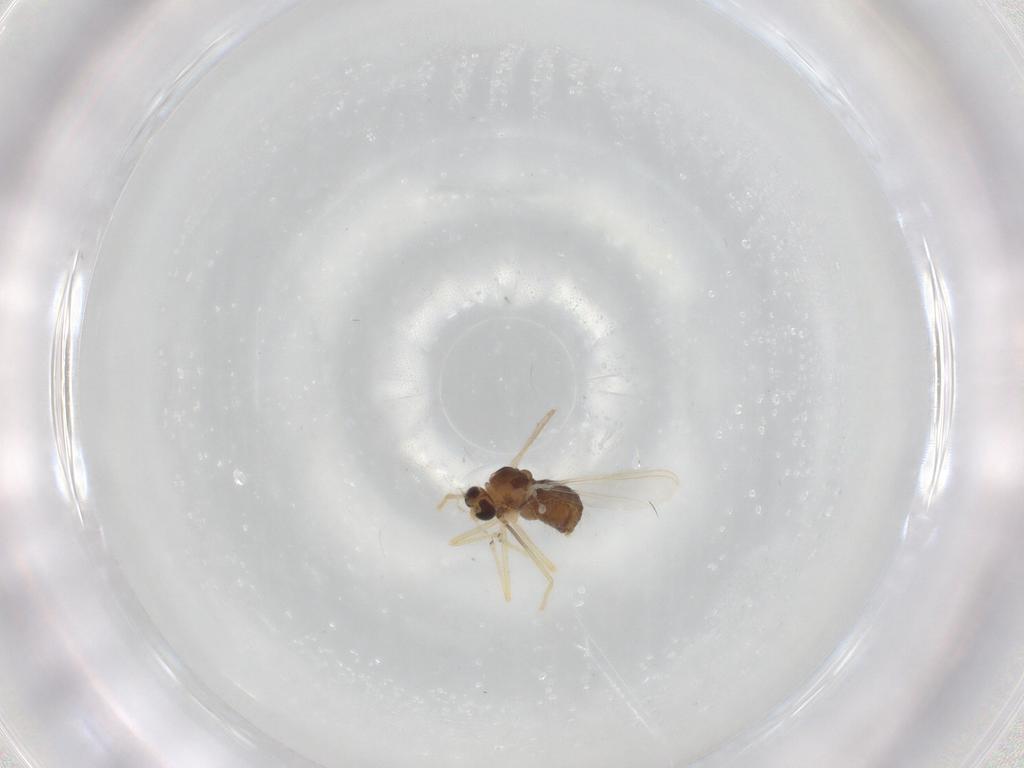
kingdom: Animalia
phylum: Arthropoda
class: Insecta
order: Diptera
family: Chironomidae
